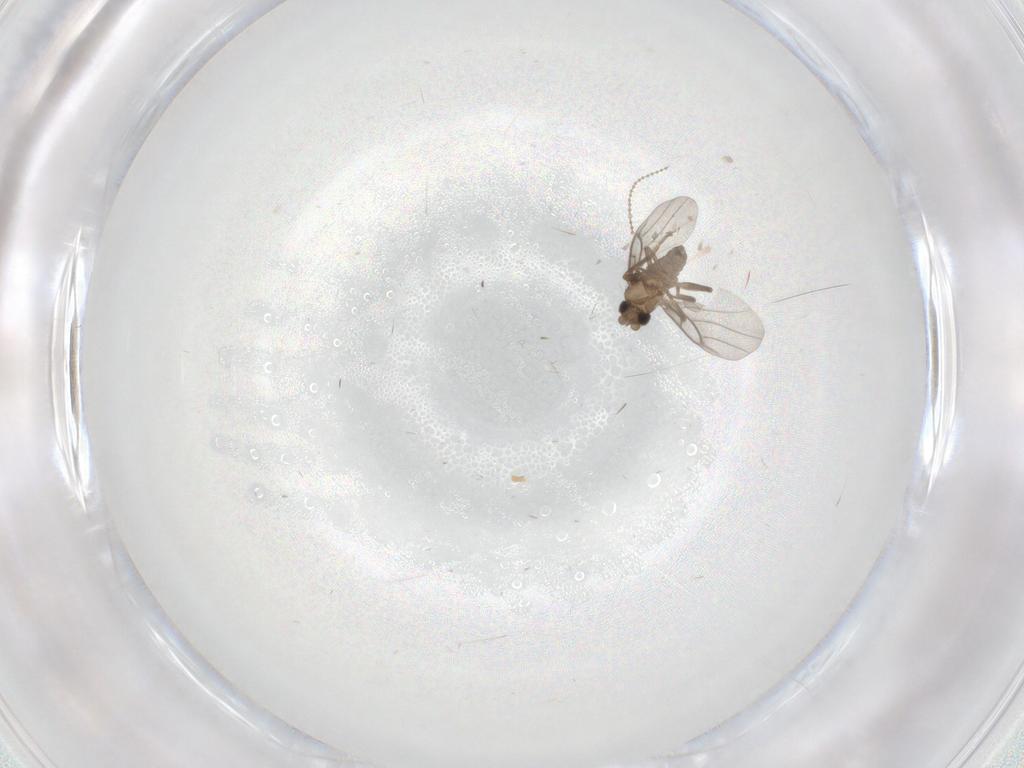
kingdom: Animalia
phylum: Arthropoda
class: Insecta
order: Diptera
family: Cecidomyiidae
